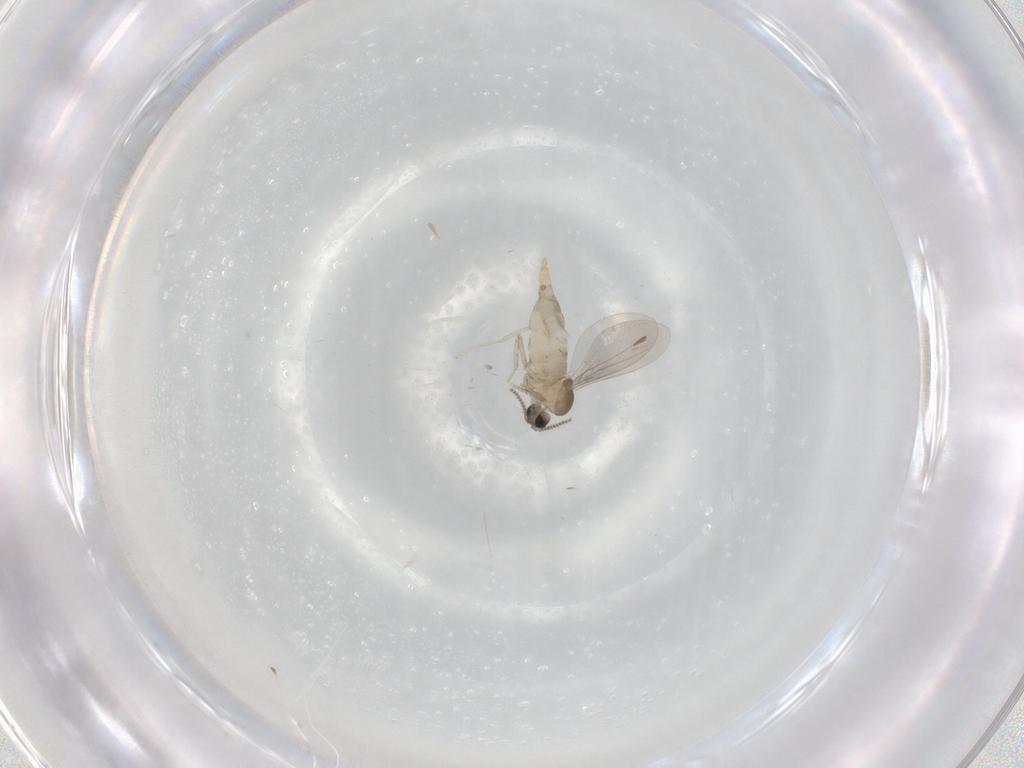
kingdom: Animalia
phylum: Arthropoda
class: Insecta
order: Diptera
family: Cecidomyiidae
